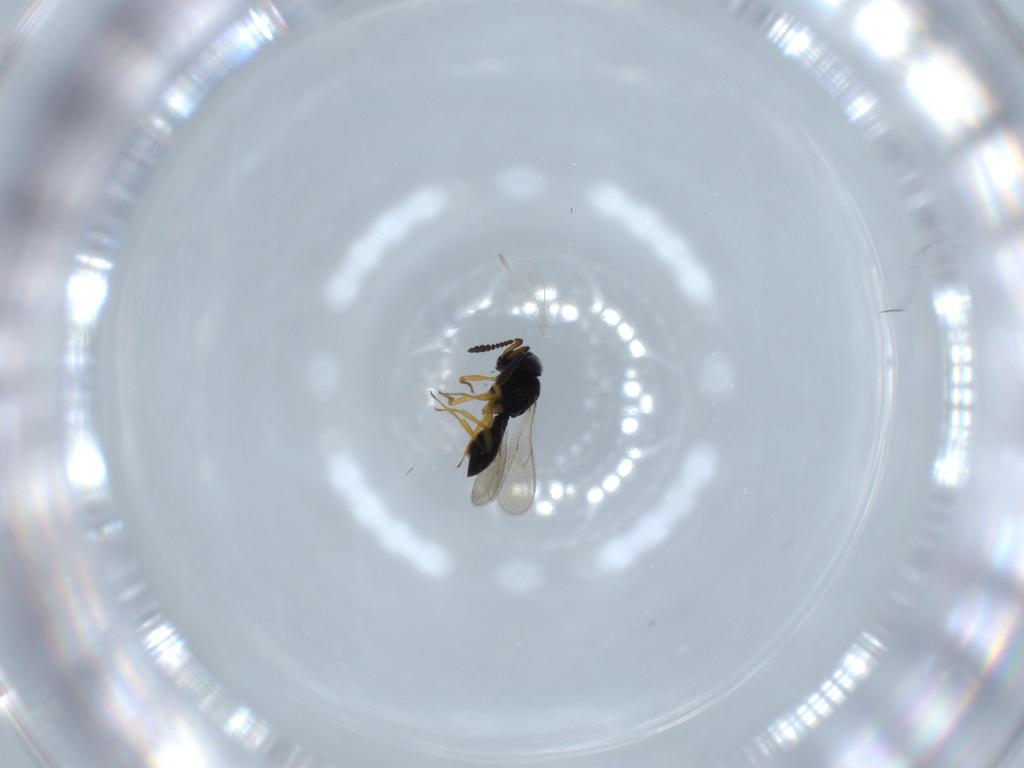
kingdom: Animalia
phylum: Arthropoda
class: Insecta
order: Hymenoptera
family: Scelionidae
